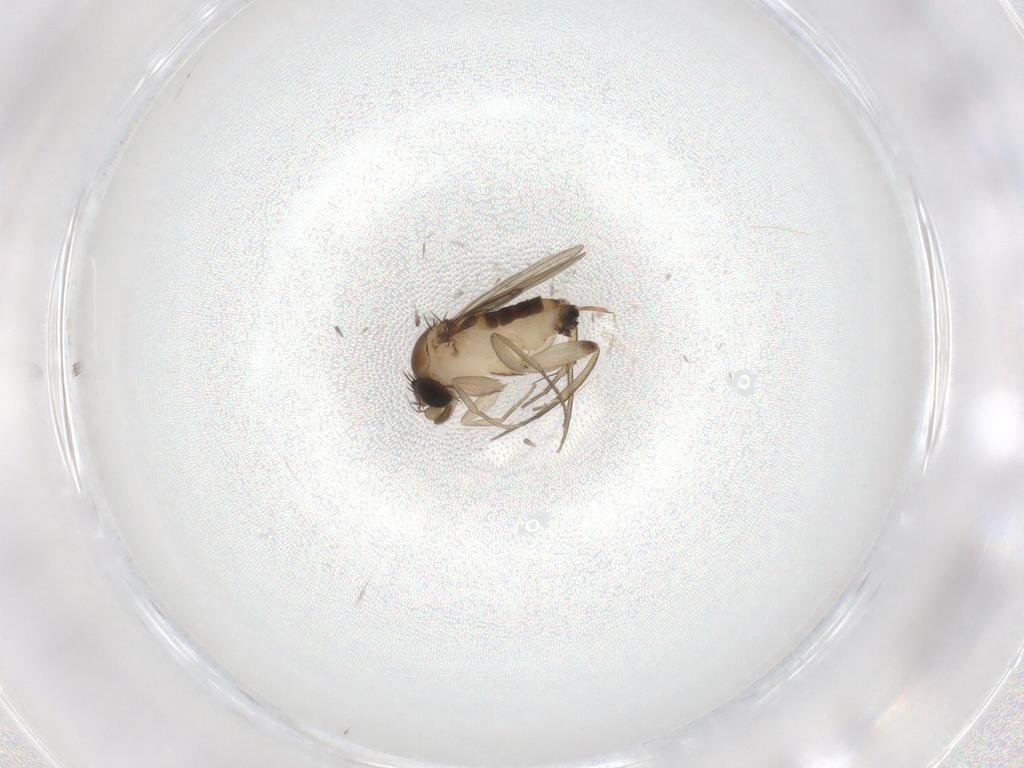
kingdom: Animalia
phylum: Arthropoda
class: Insecta
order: Diptera
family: Phoridae
